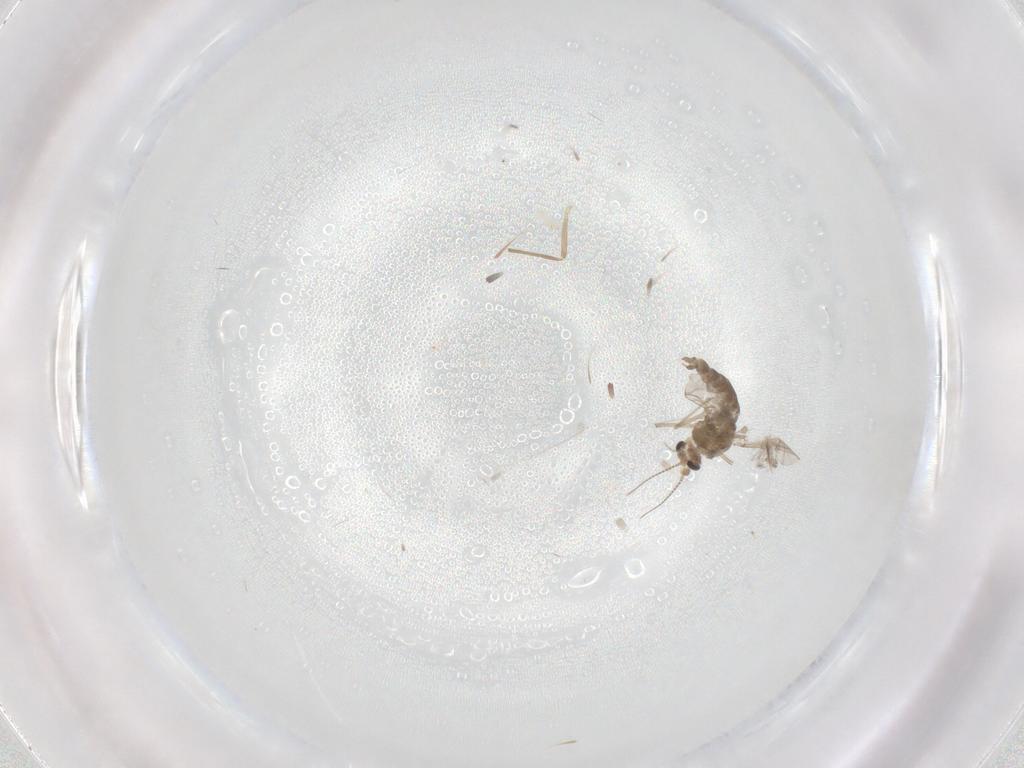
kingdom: Animalia
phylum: Arthropoda
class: Insecta
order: Diptera
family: Chironomidae
